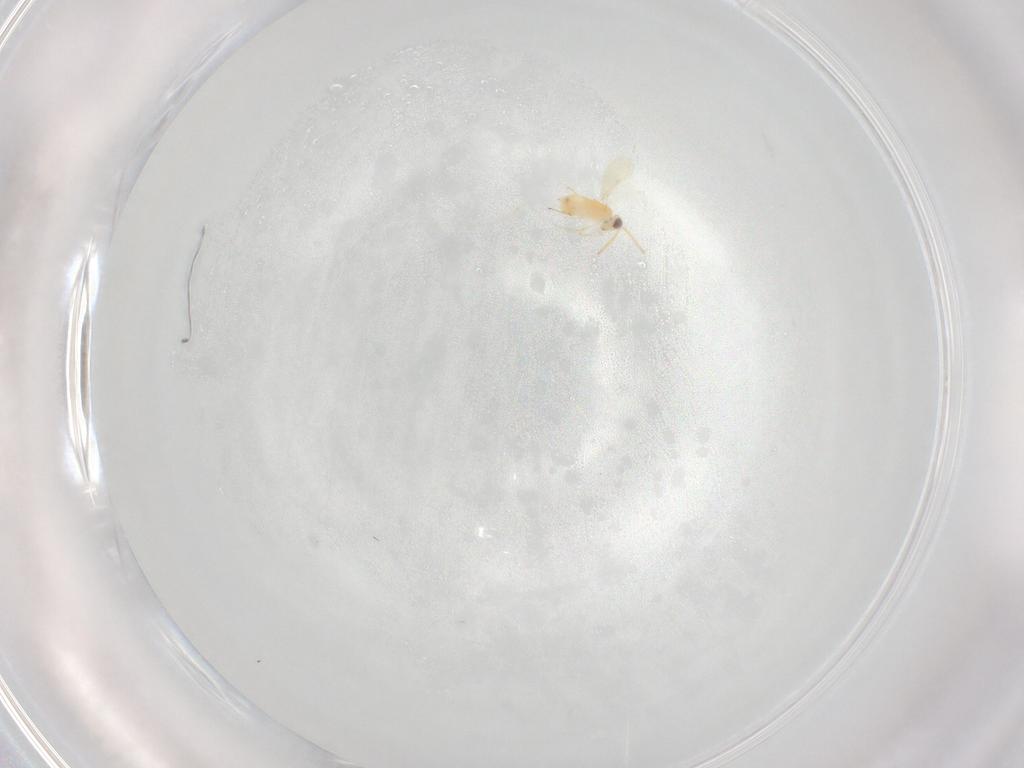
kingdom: Animalia
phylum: Arthropoda
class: Insecta
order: Hymenoptera
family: Aphelinidae
